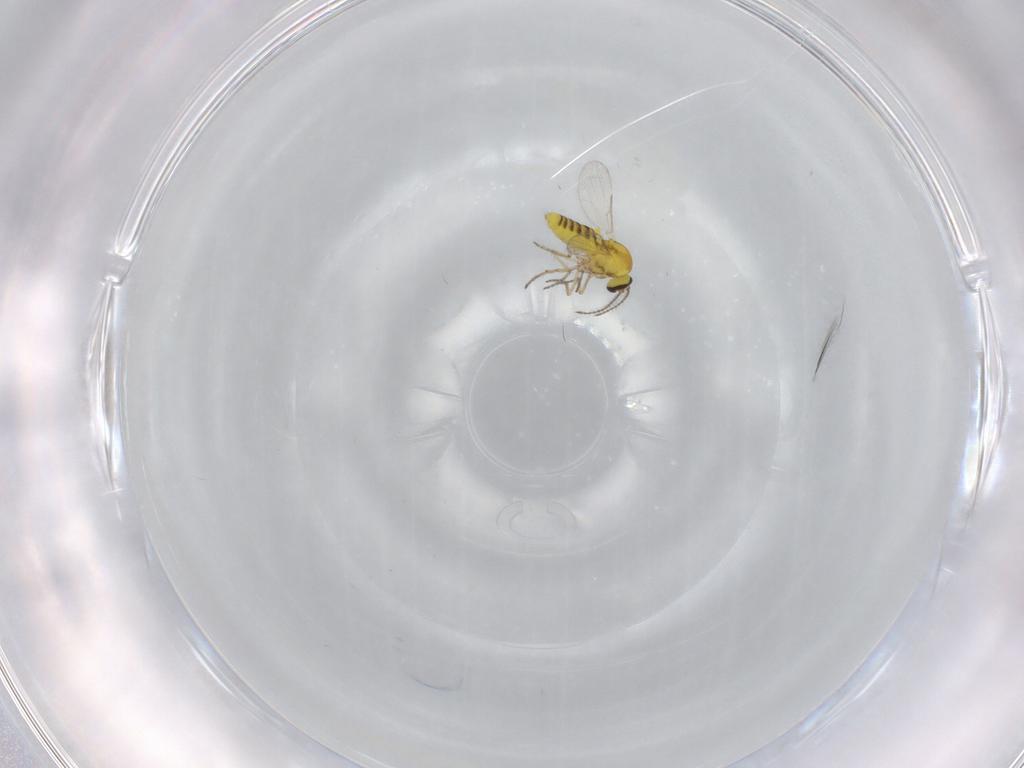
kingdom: Animalia
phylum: Arthropoda
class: Insecta
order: Diptera
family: Ceratopogonidae
